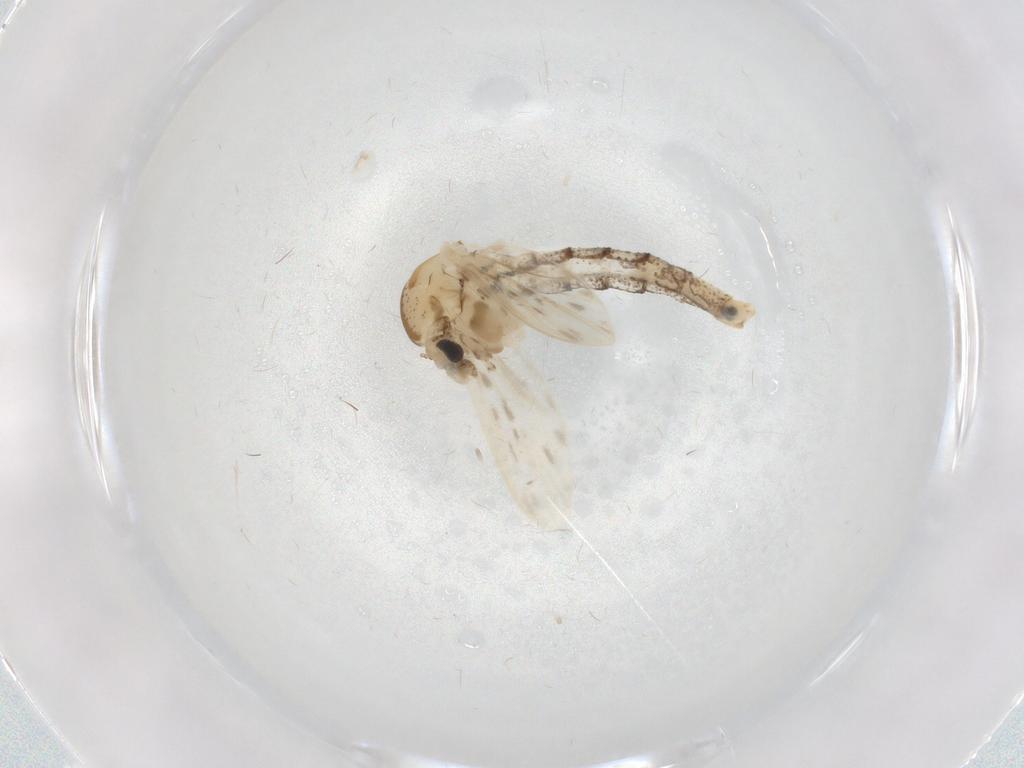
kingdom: Animalia
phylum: Arthropoda
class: Insecta
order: Diptera
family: Chaoboridae
